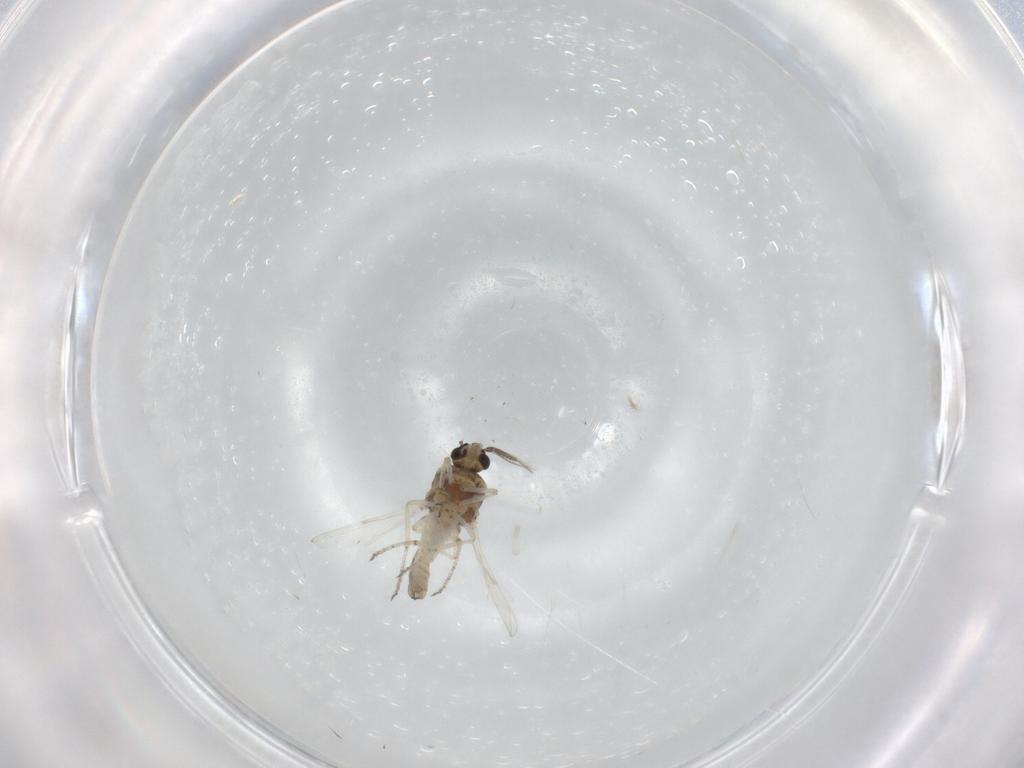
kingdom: Animalia
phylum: Arthropoda
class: Insecta
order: Diptera
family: Ceratopogonidae
